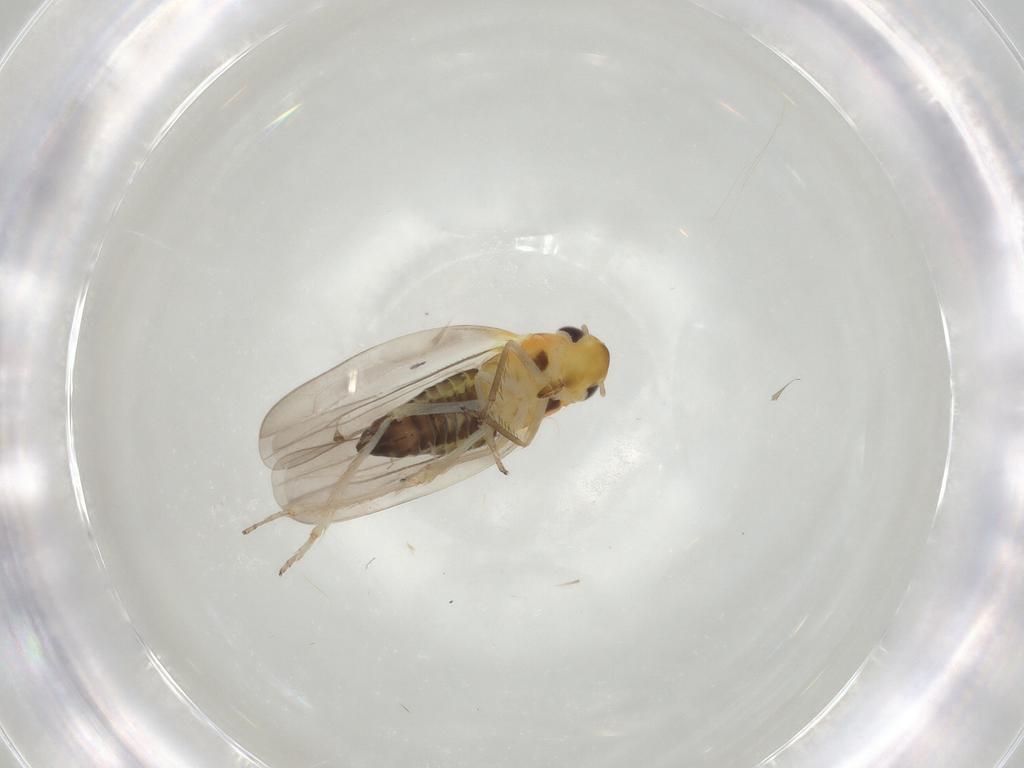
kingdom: Animalia
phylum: Arthropoda
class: Insecta
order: Hemiptera
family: Cicadellidae
